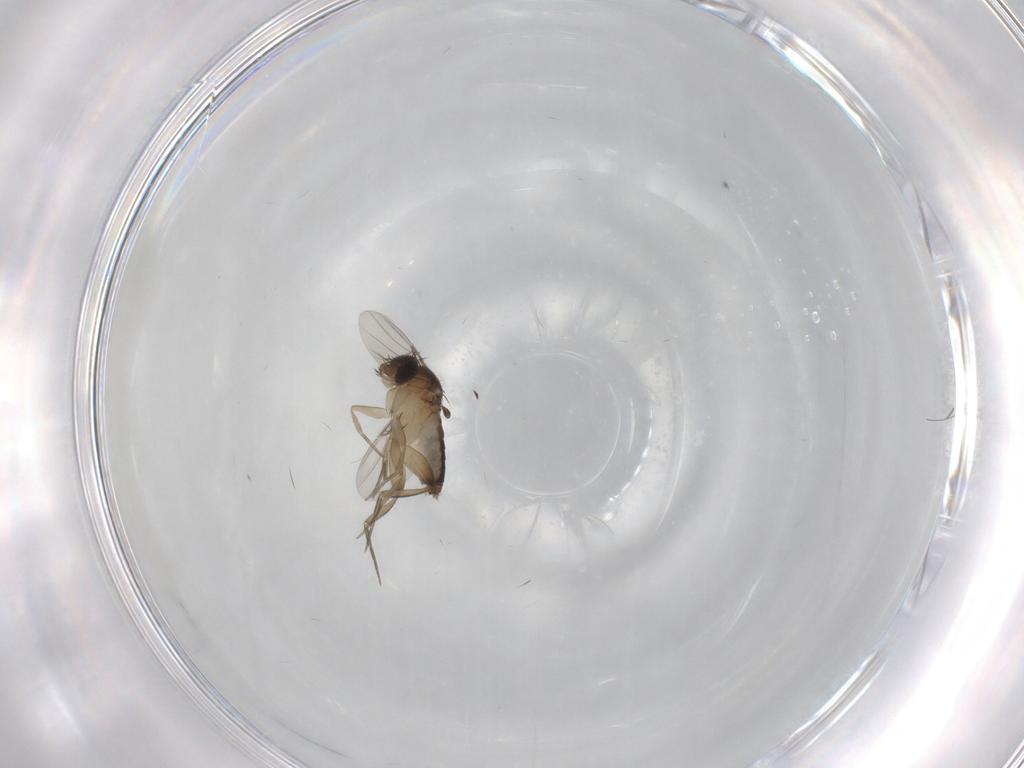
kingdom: Animalia
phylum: Arthropoda
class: Insecta
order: Diptera
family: Phoridae
